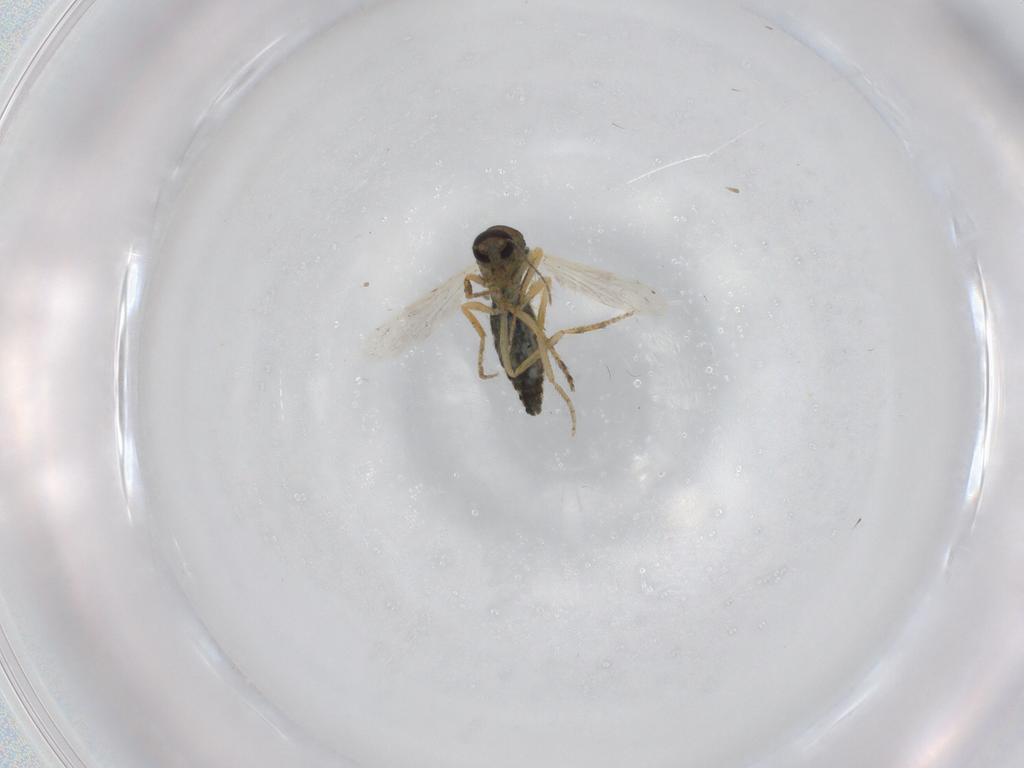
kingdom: Animalia
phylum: Arthropoda
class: Insecta
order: Diptera
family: Ceratopogonidae
